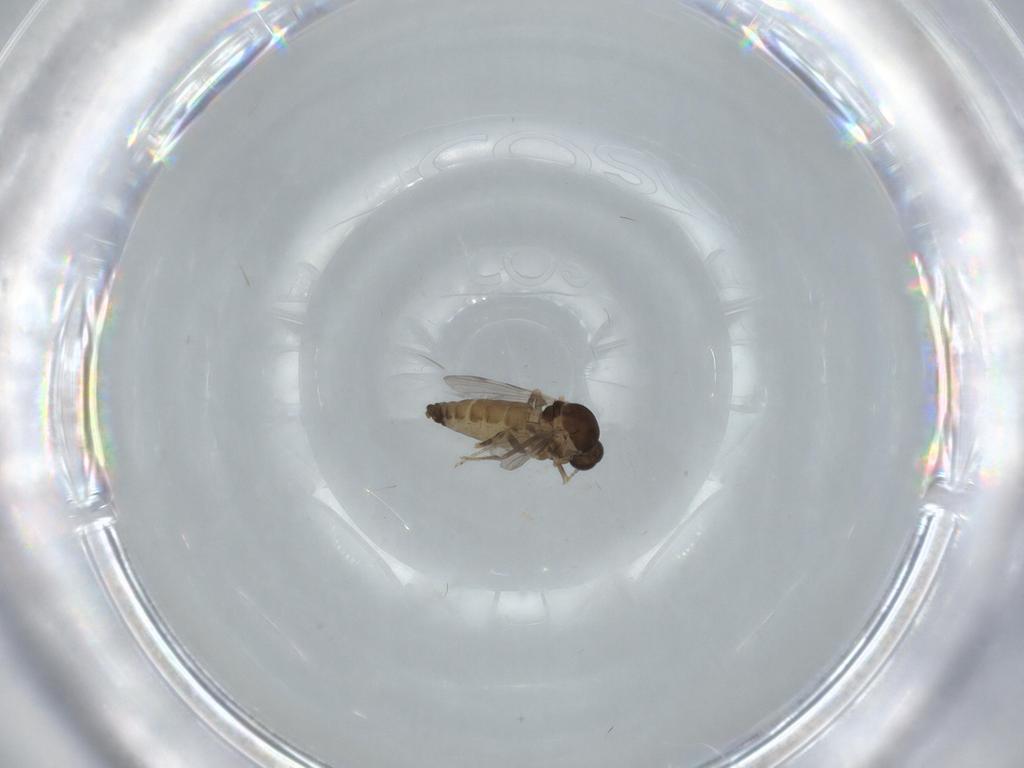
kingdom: Animalia
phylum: Arthropoda
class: Insecta
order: Diptera
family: Ceratopogonidae
